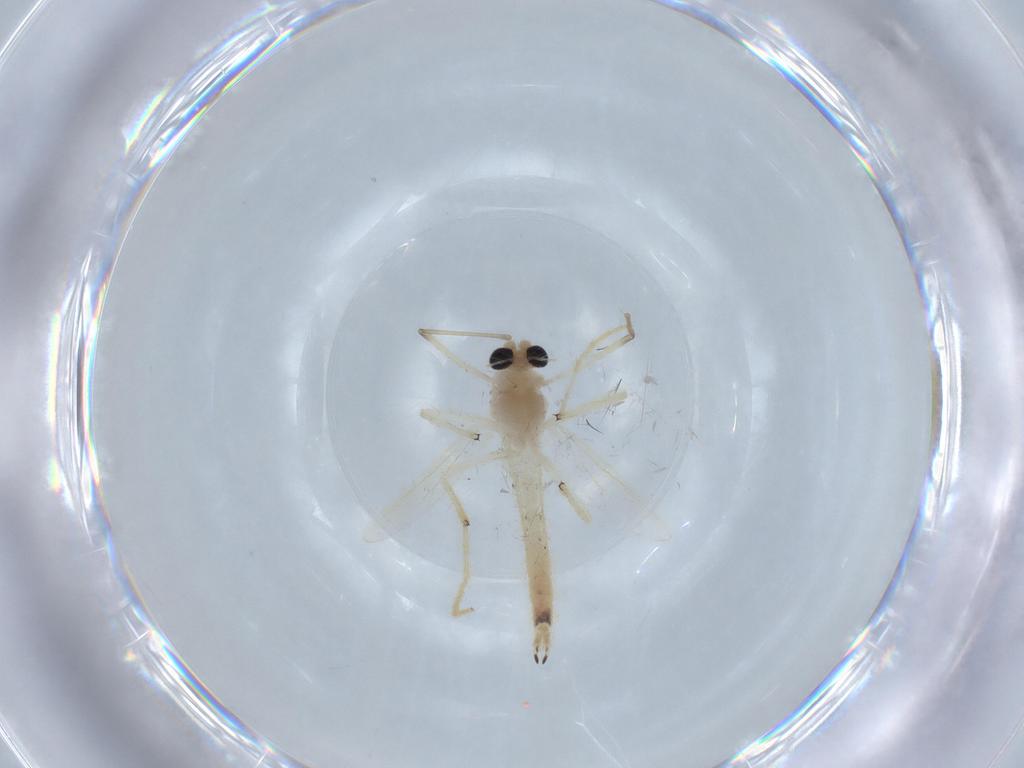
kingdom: Animalia
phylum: Arthropoda
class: Insecta
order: Diptera
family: Chironomidae
